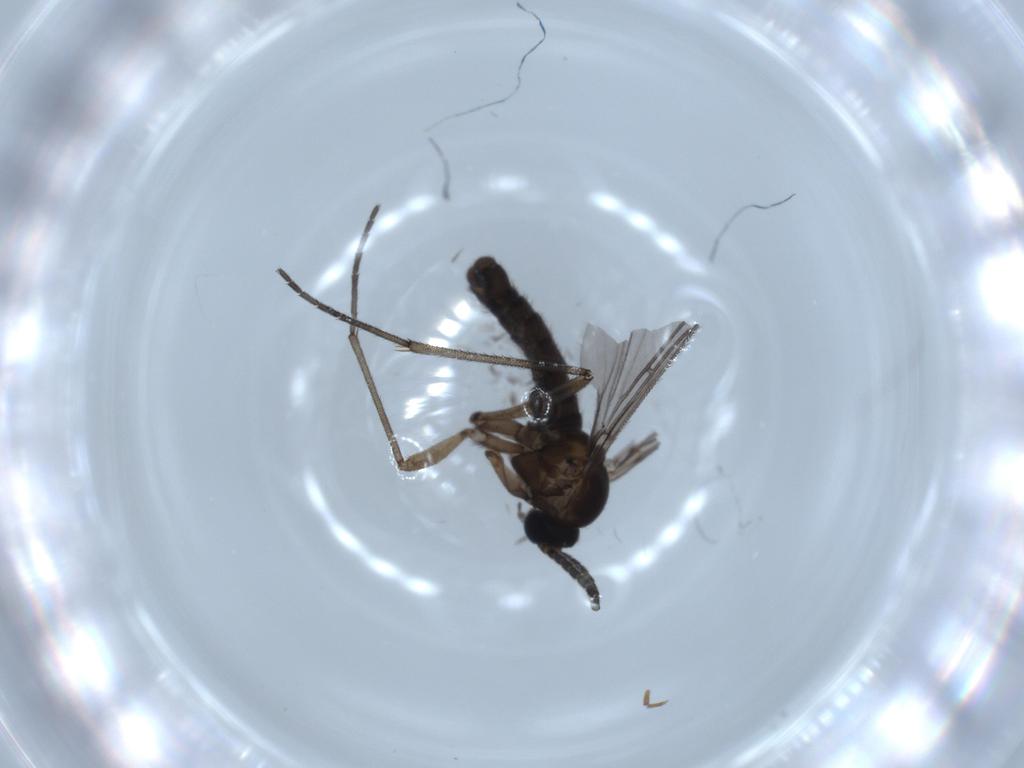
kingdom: Animalia
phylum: Arthropoda
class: Insecta
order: Diptera
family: Sciaridae
